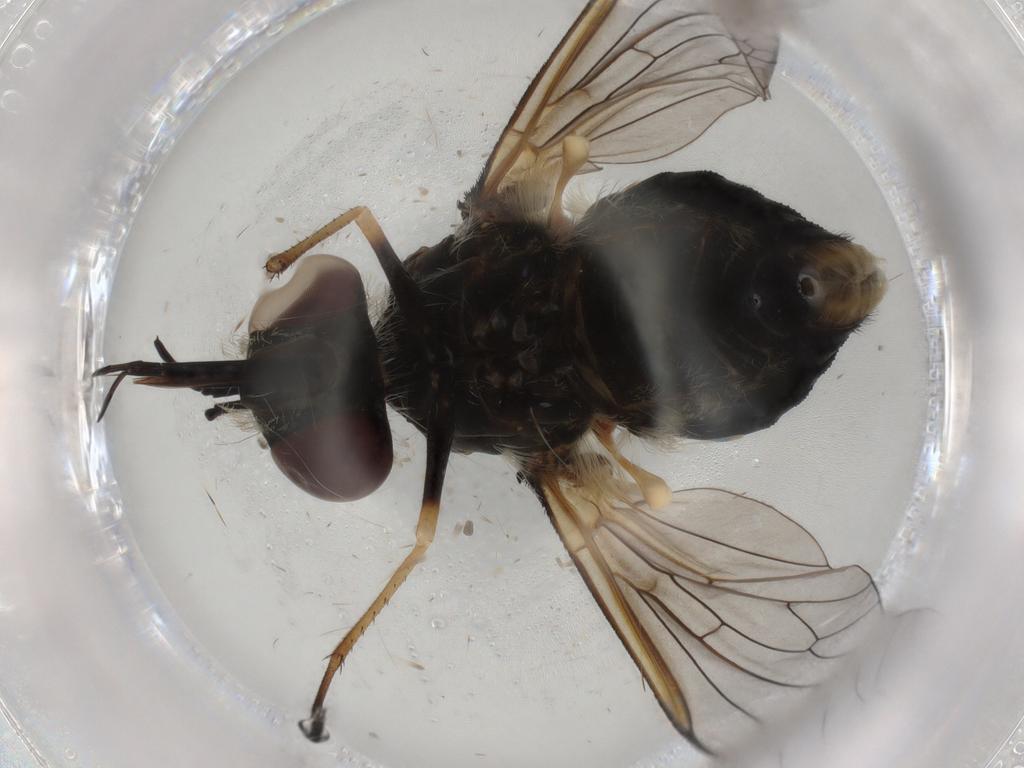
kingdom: Animalia
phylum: Arthropoda
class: Insecta
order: Diptera
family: Bombyliidae
